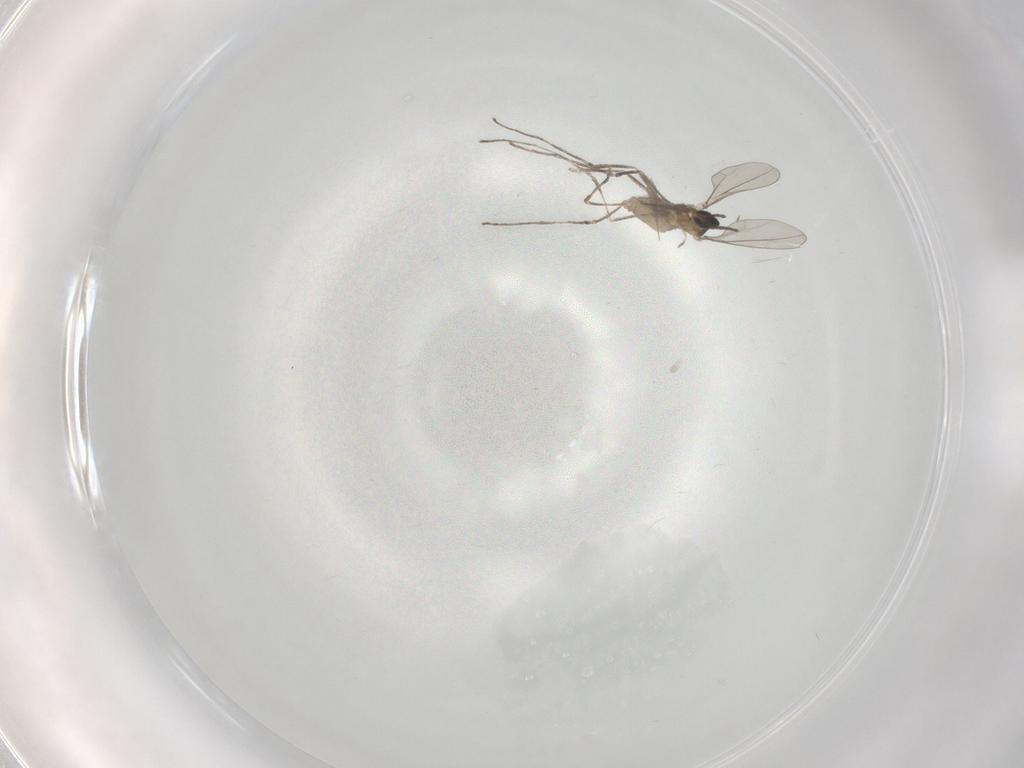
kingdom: Animalia
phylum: Arthropoda
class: Insecta
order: Diptera
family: Cecidomyiidae
